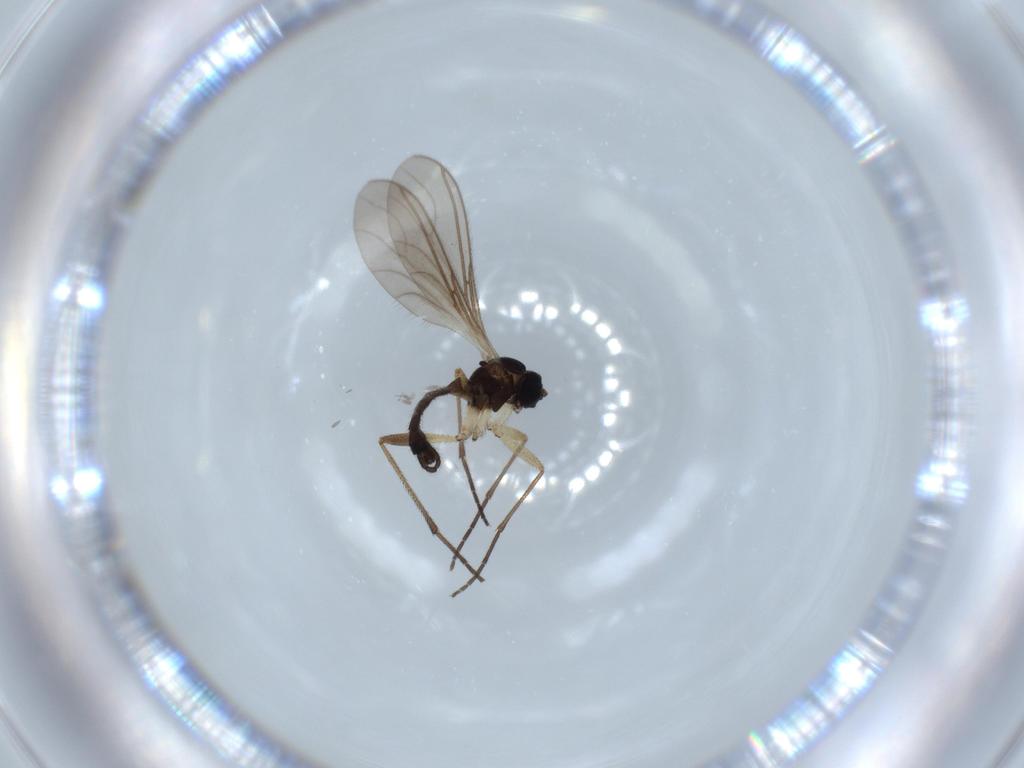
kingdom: Animalia
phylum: Arthropoda
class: Insecta
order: Diptera
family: Sciaridae
